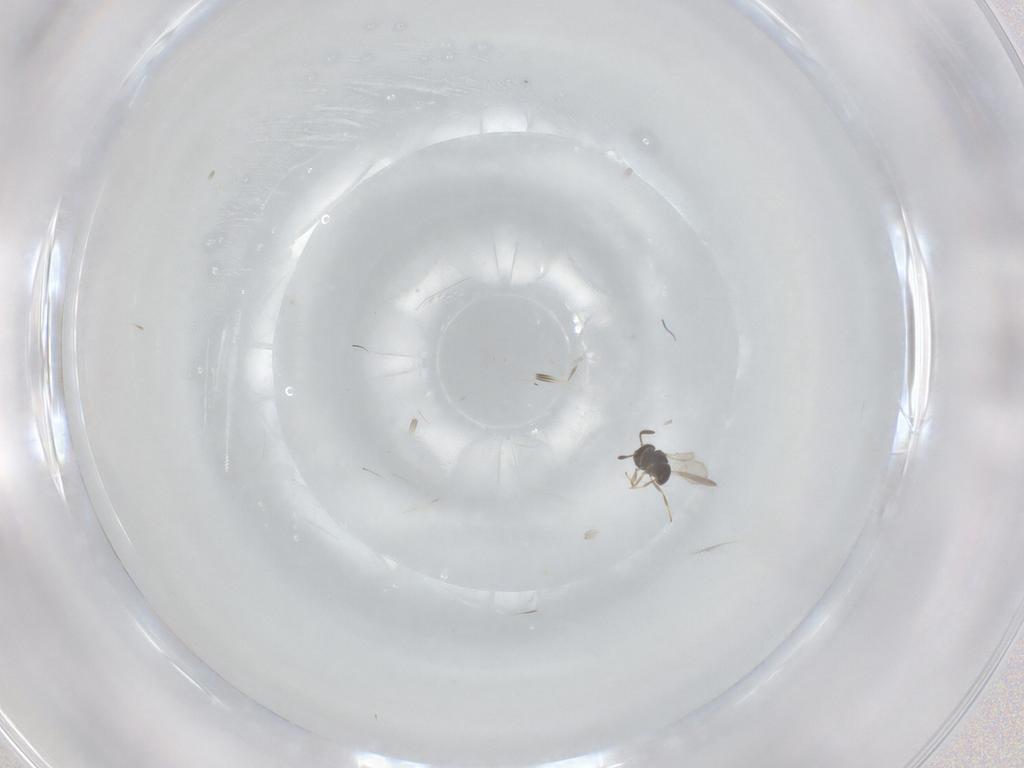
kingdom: Animalia
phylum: Arthropoda
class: Insecta
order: Hymenoptera
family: Scelionidae
